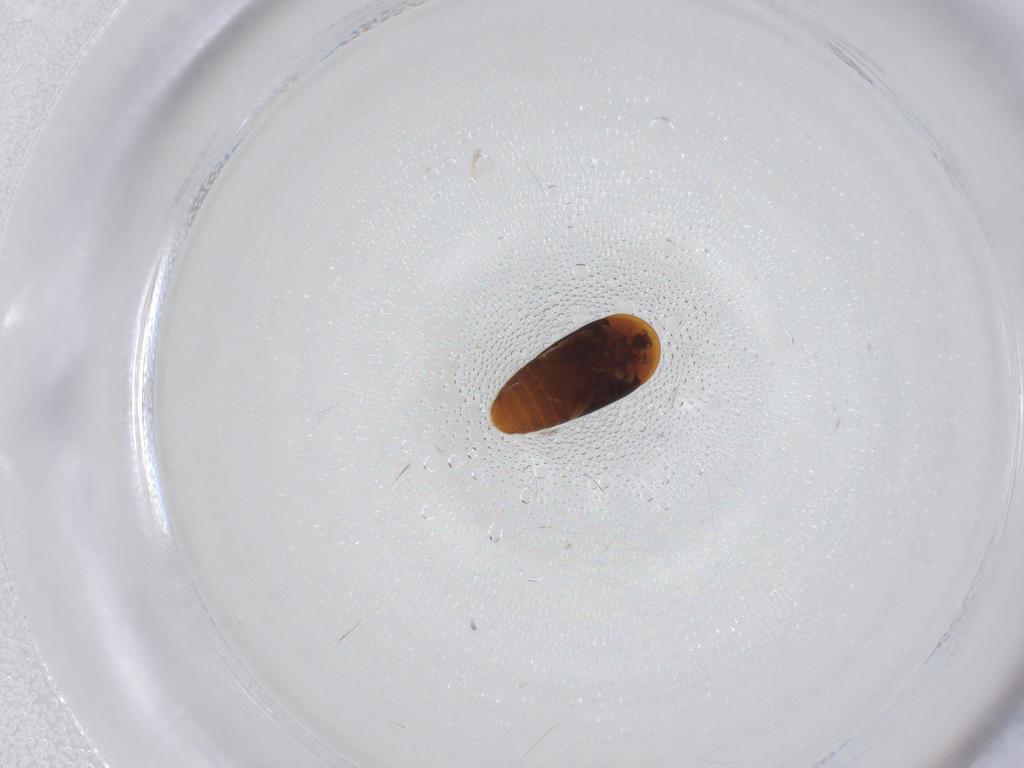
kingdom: Animalia
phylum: Arthropoda
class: Insecta
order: Coleoptera
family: Corylophidae
